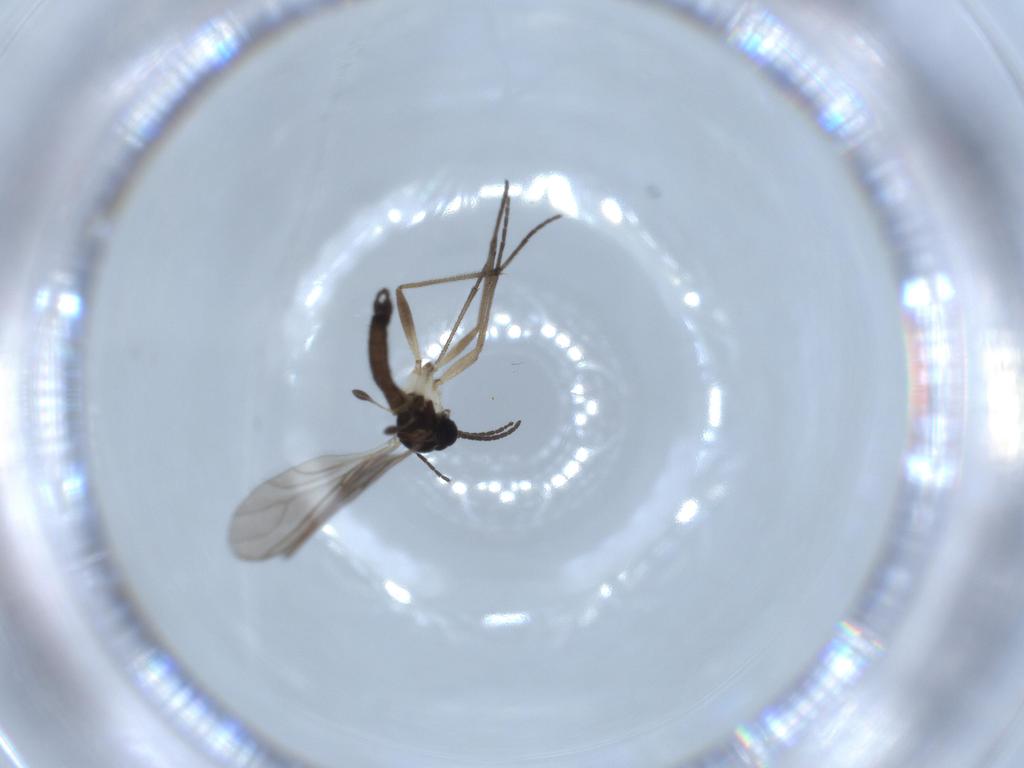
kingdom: Animalia
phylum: Arthropoda
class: Insecta
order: Diptera
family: Sciaridae
